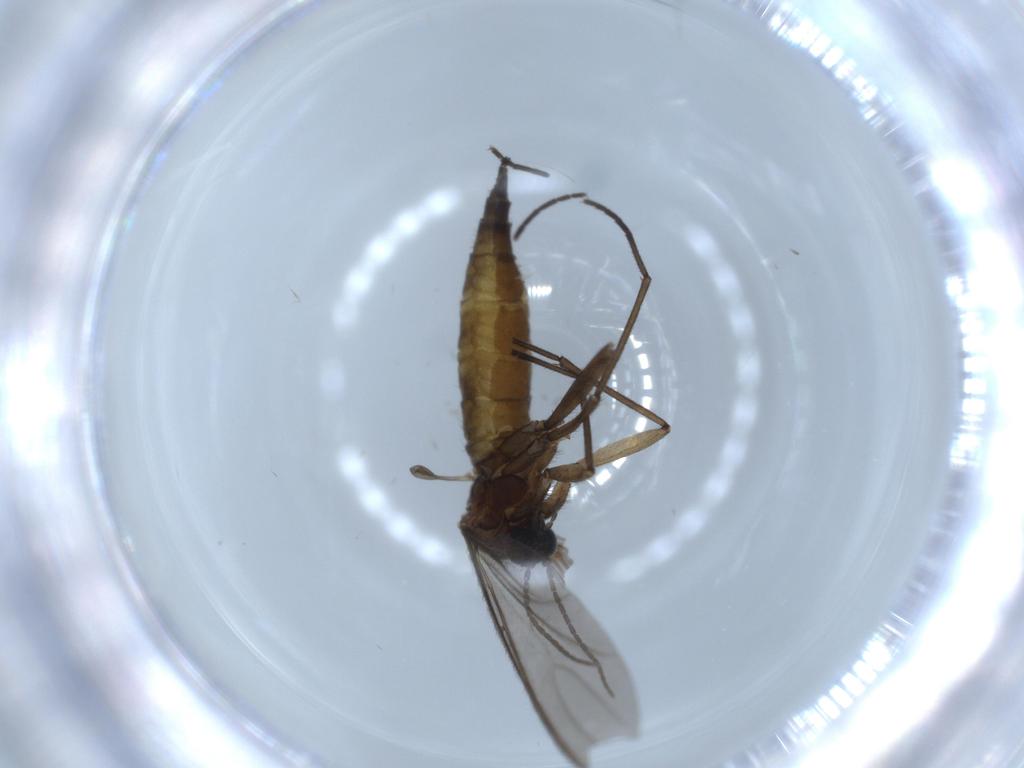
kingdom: Animalia
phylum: Arthropoda
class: Insecta
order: Diptera
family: Sciaridae
